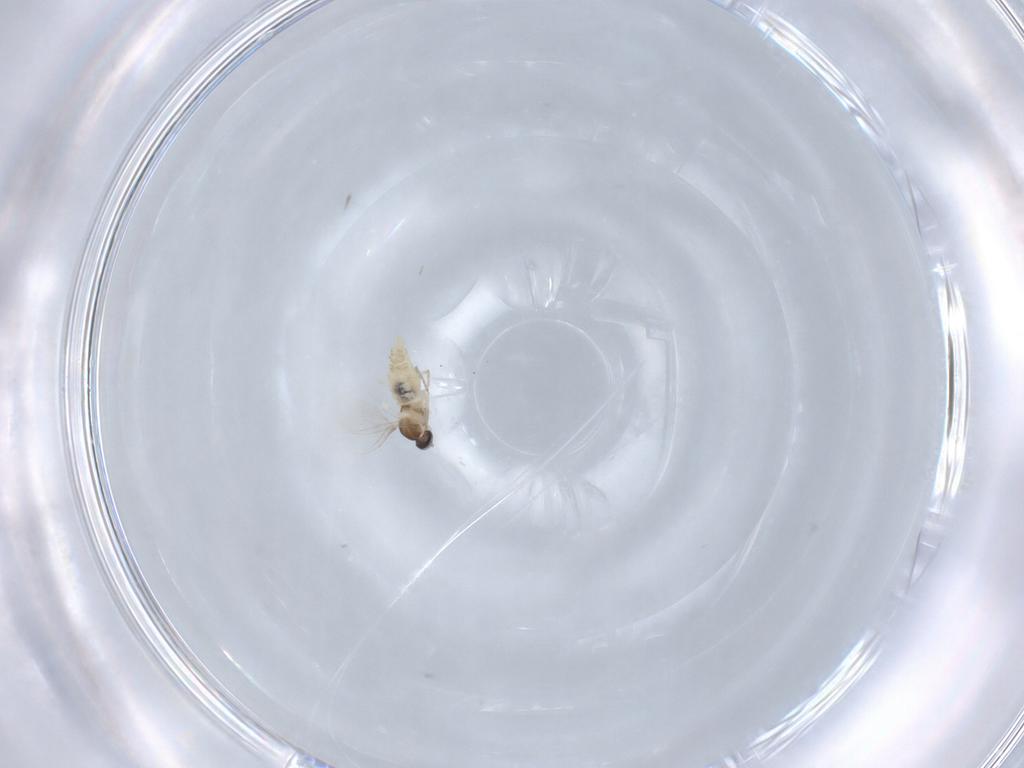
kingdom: Animalia
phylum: Arthropoda
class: Insecta
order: Diptera
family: Cecidomyiidae
